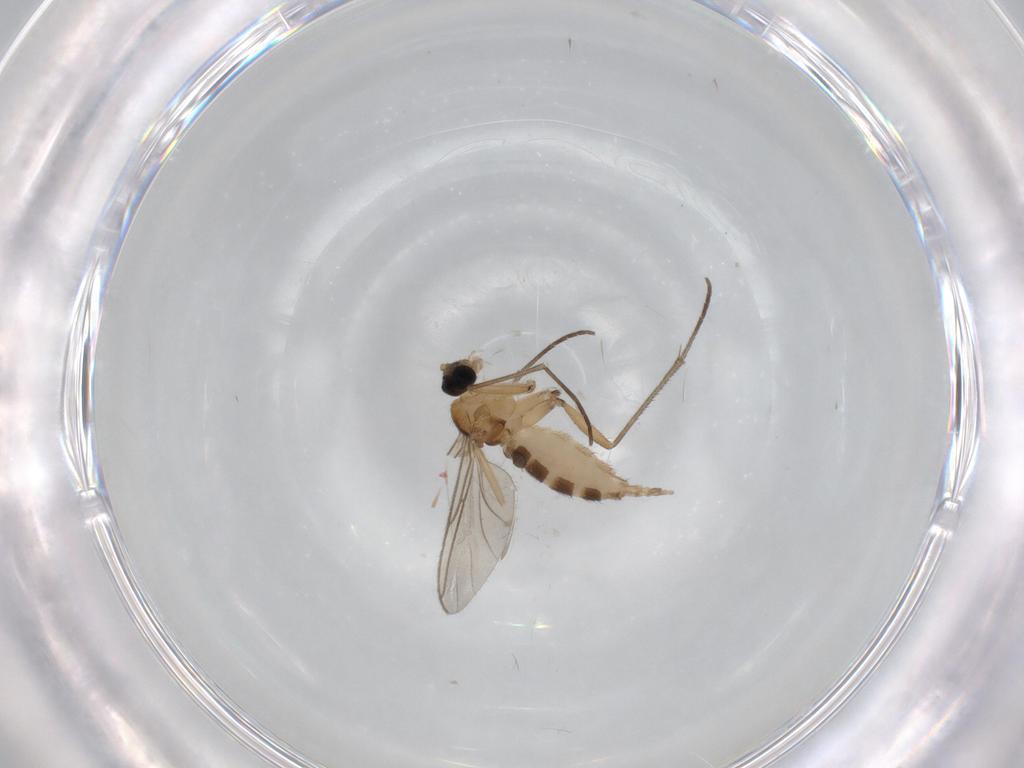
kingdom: Animalia
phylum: Arthropoda
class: Insecta
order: Diptera
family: Sciaridae
